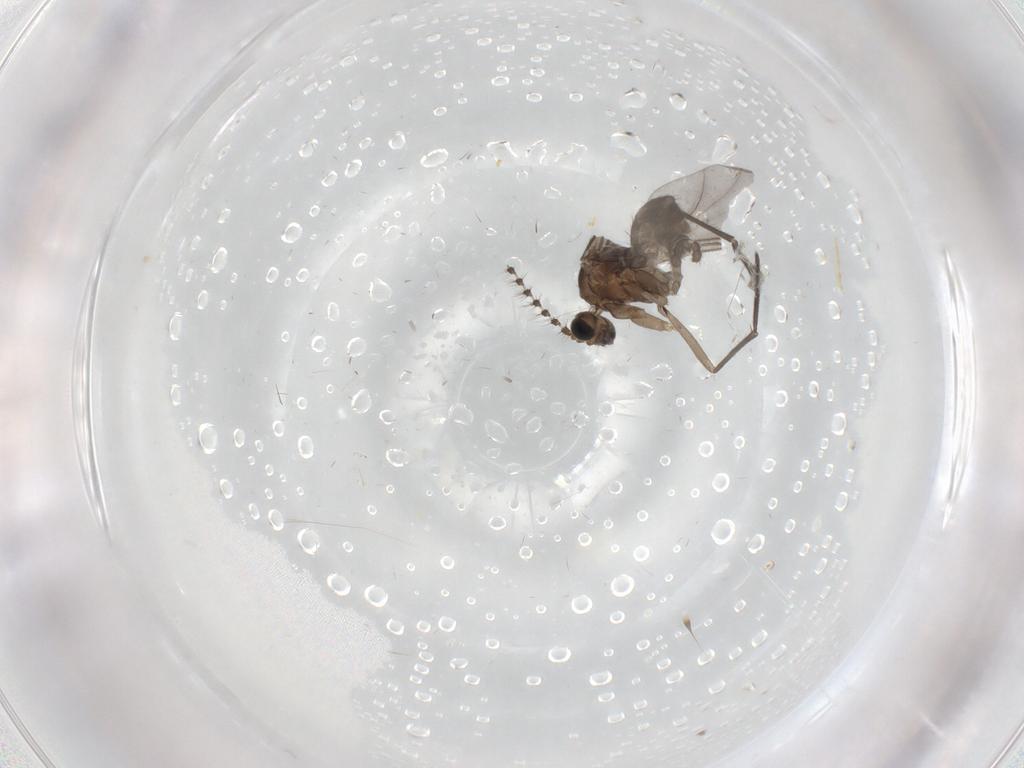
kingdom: Animalia
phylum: Arthropoda
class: Insecta
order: Diptera
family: Sciaridae
